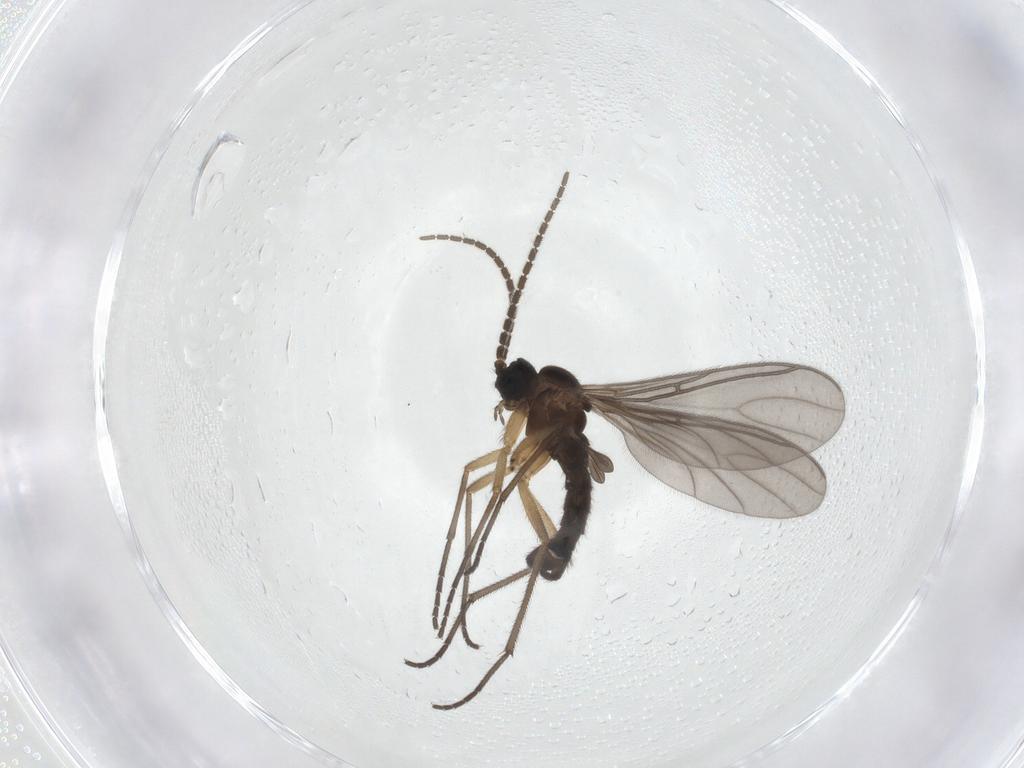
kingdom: Animalia
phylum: Arthropoda
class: Insecta
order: Diptera
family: Sciaridae
